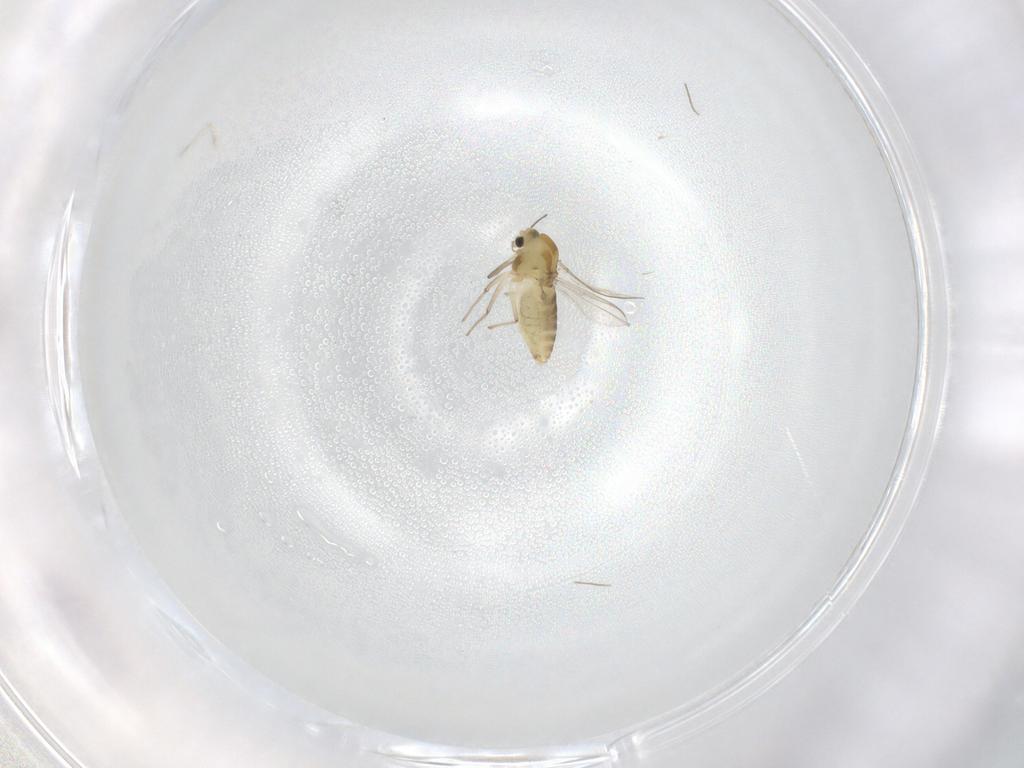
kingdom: Animalia
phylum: Arthropoda
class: Insecta
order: Diptera
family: Chironomidae
